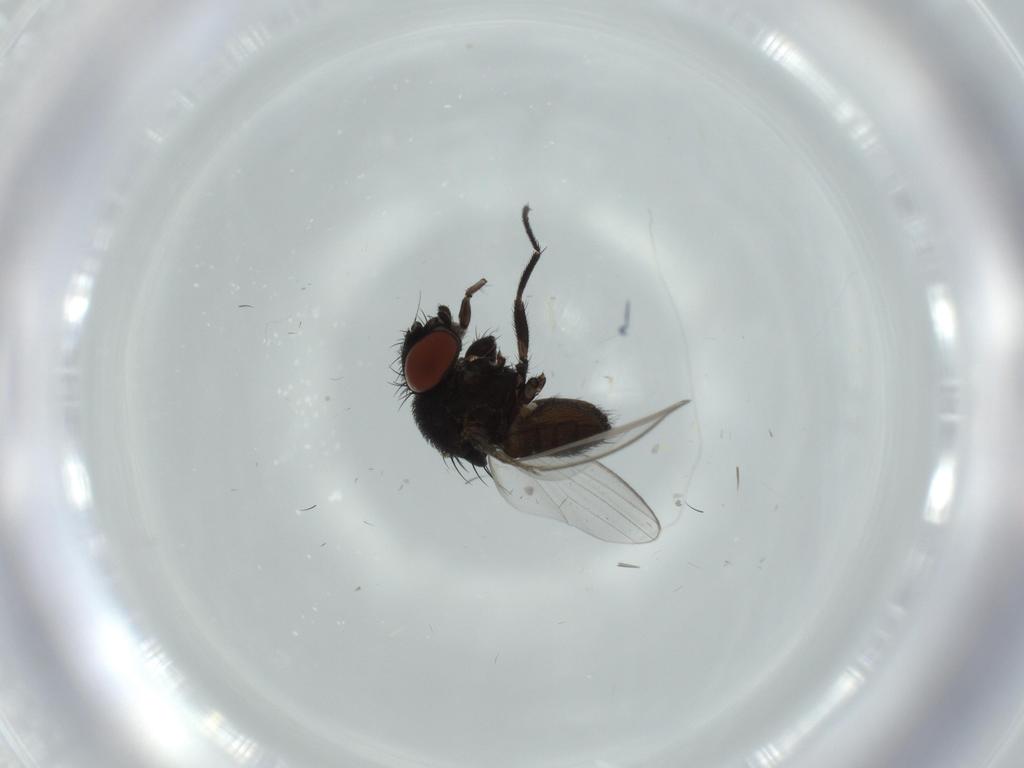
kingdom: Animalia
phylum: Arthropoda
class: Insecta
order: Diptera
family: Milichiidae
